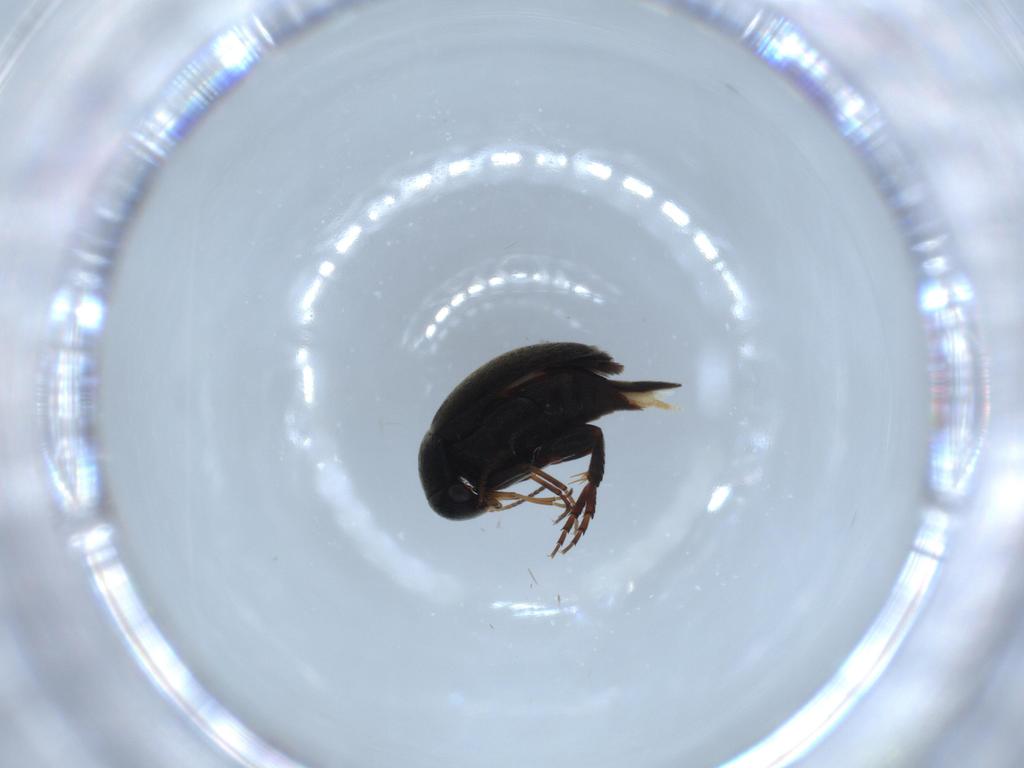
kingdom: Animalia
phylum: Arthropoda
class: Insecta
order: Coleoptera
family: Mordellidae
